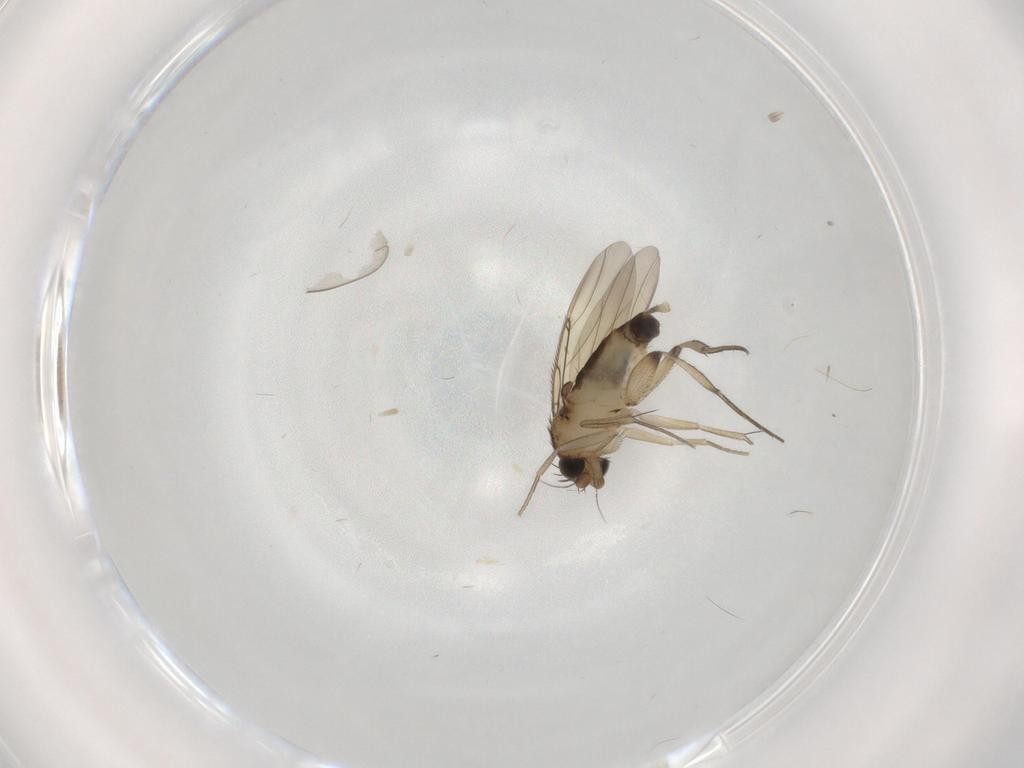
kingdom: Animalia
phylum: Arthropoda
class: Insecta
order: Diptera
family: Phoridae
